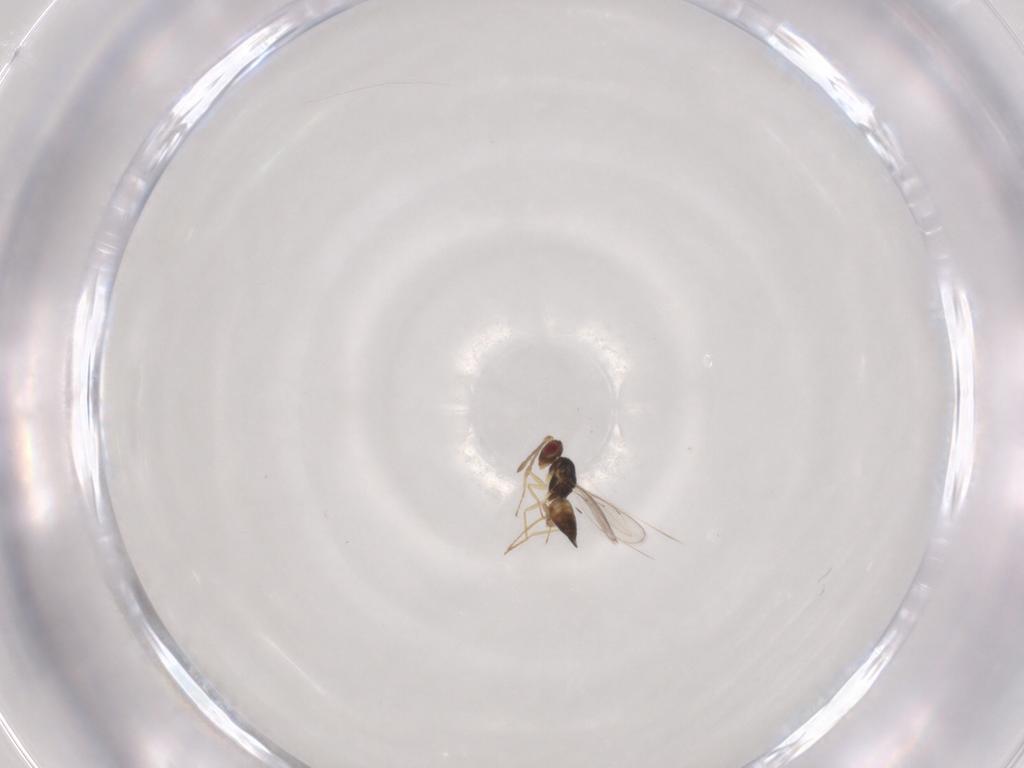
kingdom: Animalia
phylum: Arthropoda
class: Insecta
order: Hymenoptera
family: Eulophidae
